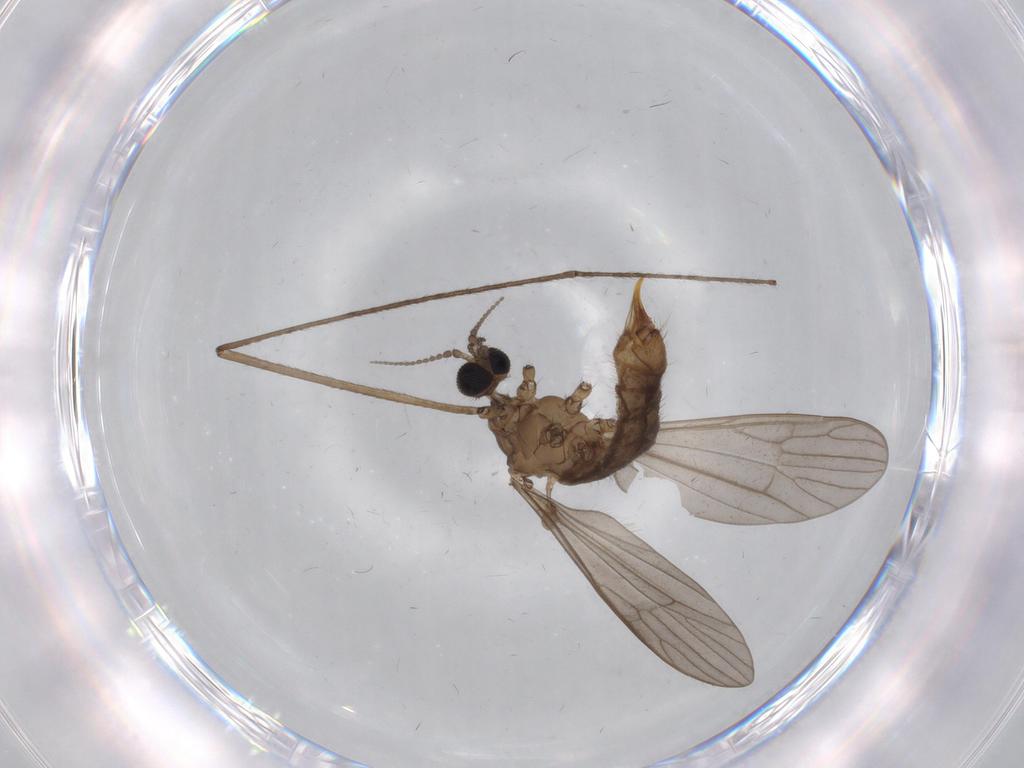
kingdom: Animalia
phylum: Arthropoda
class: Insecta
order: Diptera
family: Limoniidae
